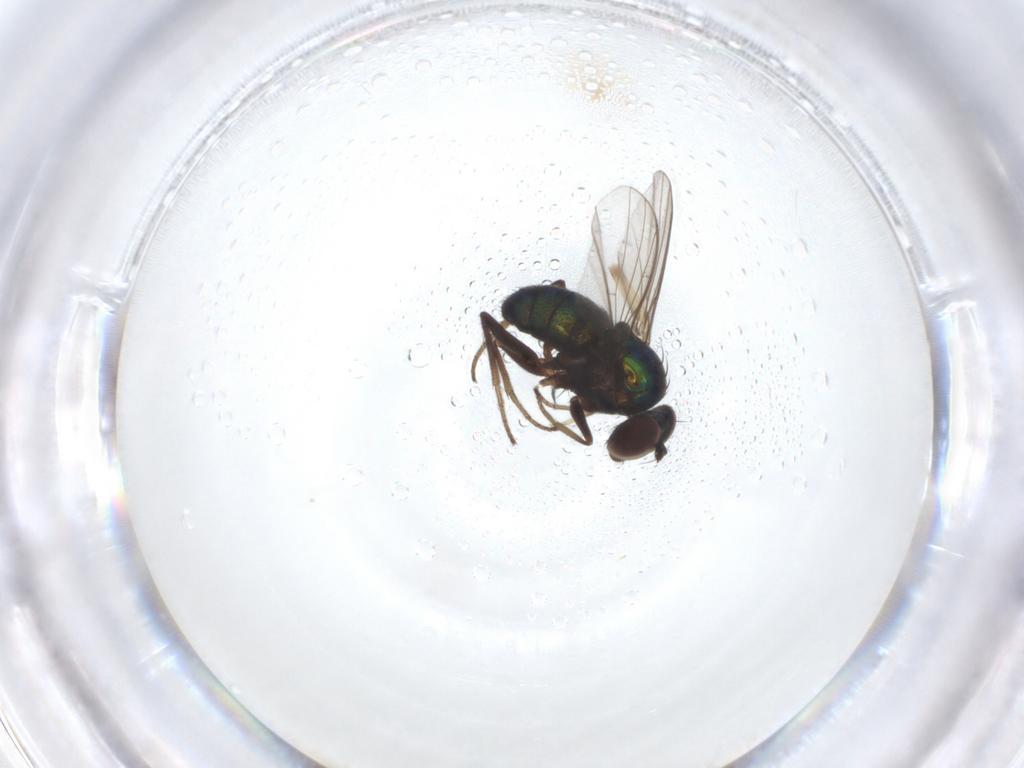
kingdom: Animalia
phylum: Arthropoda
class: Insecta
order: Diptera
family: Dolichopodidae
